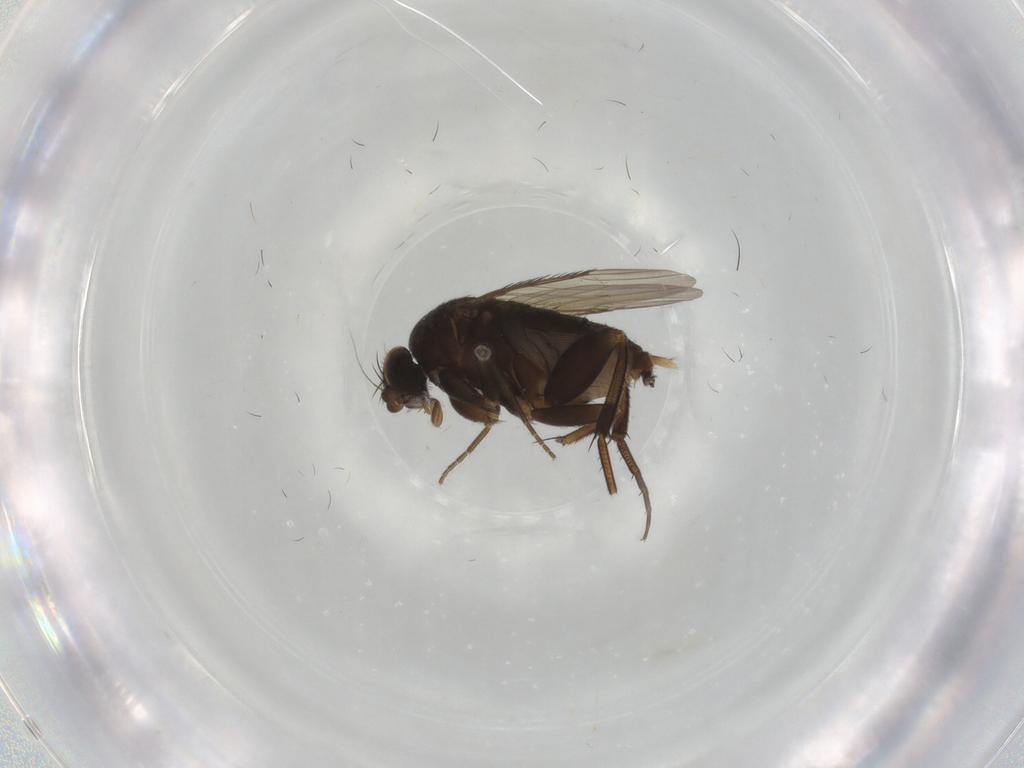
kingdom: Animalia
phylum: Arthropoda
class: Insecta
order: Diptera
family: Phoridae
